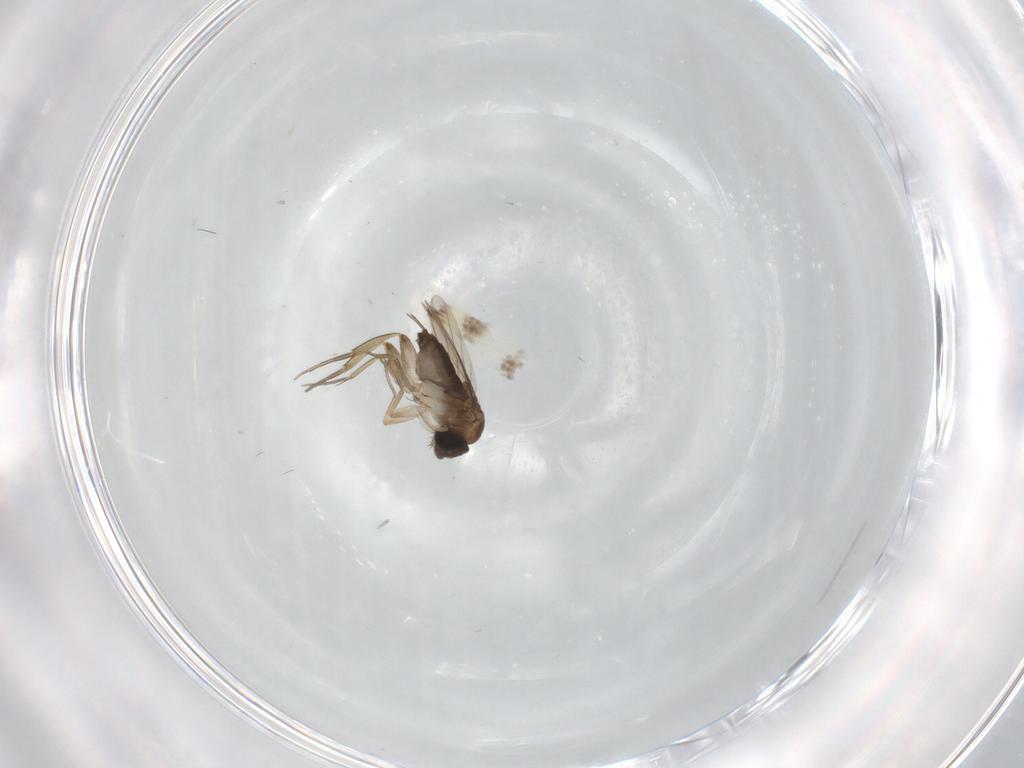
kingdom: Animalia
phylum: Arthropoda
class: Insecta
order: Diptera
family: Phoridae
